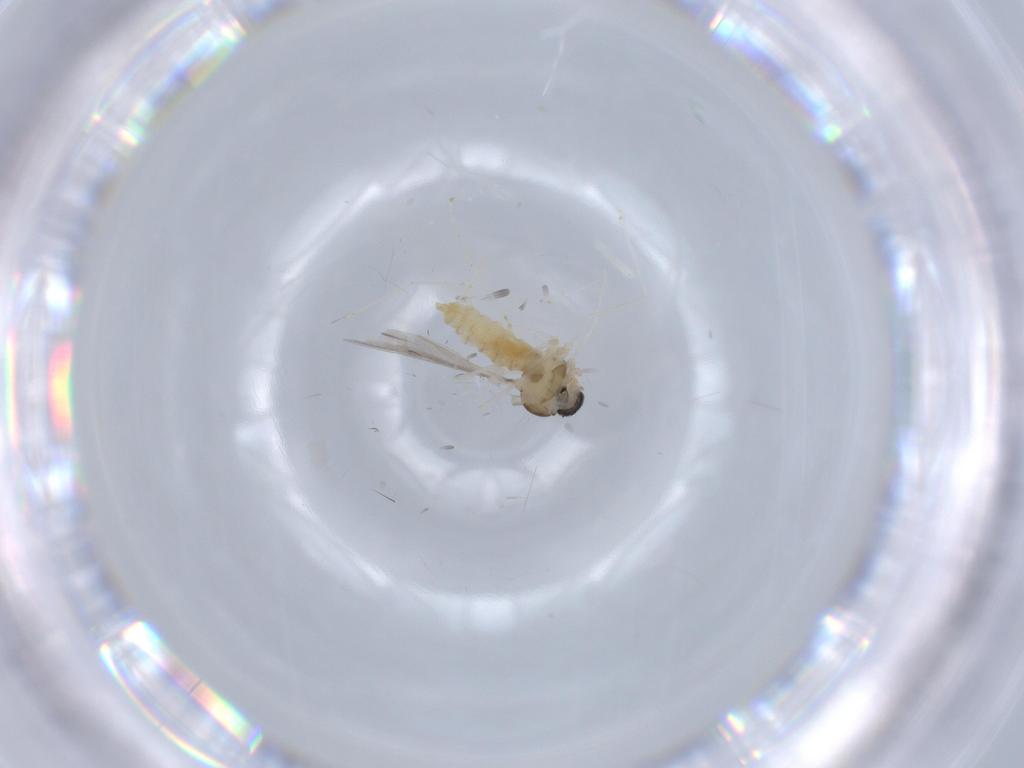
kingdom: Animalia
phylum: Arthropoda
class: Insecta
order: Diptera
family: Cecidomyiidae
